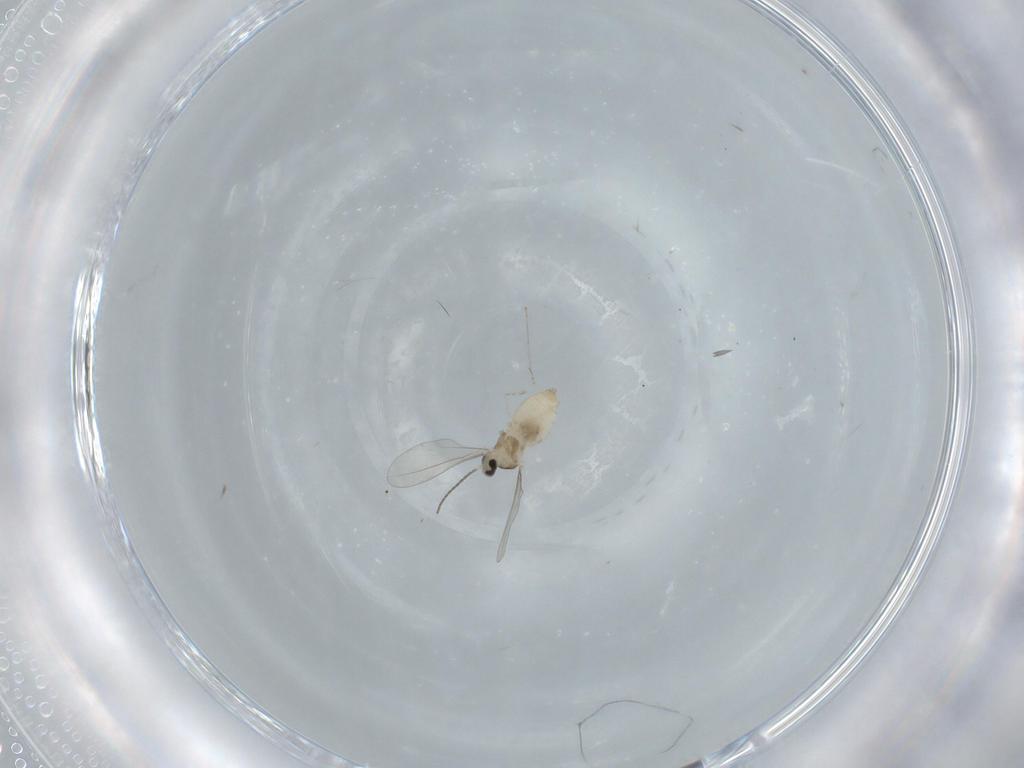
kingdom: Animalia
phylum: Arthropoda
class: Insecta
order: Diptera
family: Cecidomyiidae
